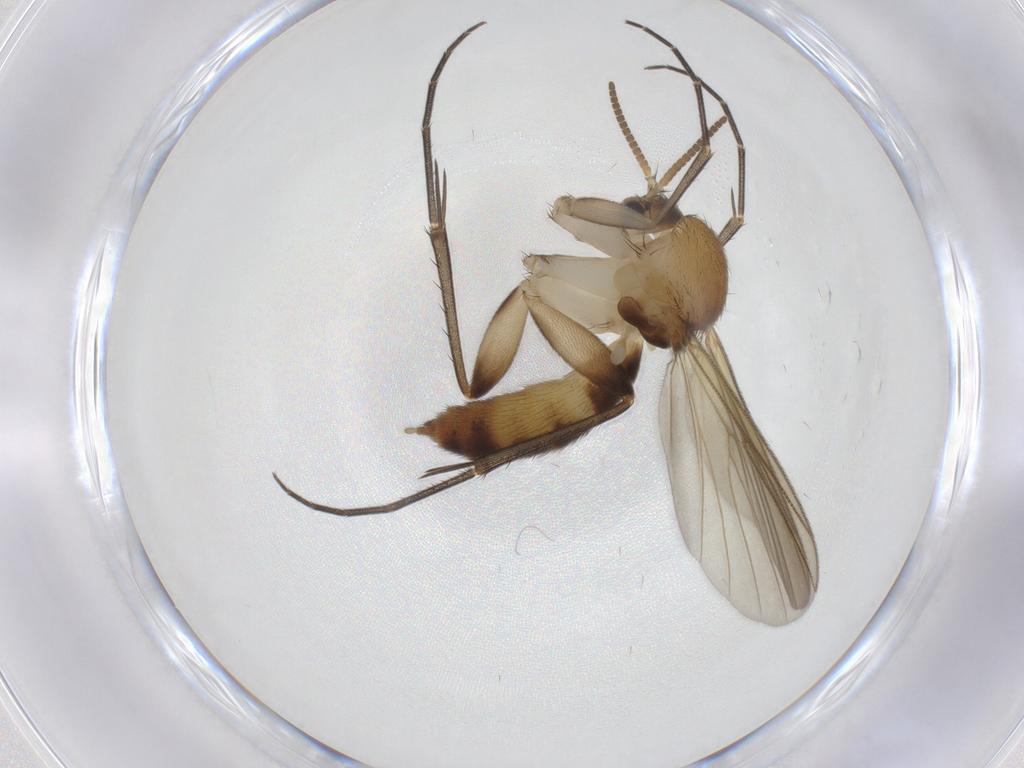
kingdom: Animalia
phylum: Arthropoda
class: Insecta
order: Diptera
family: Mycetophilidae
